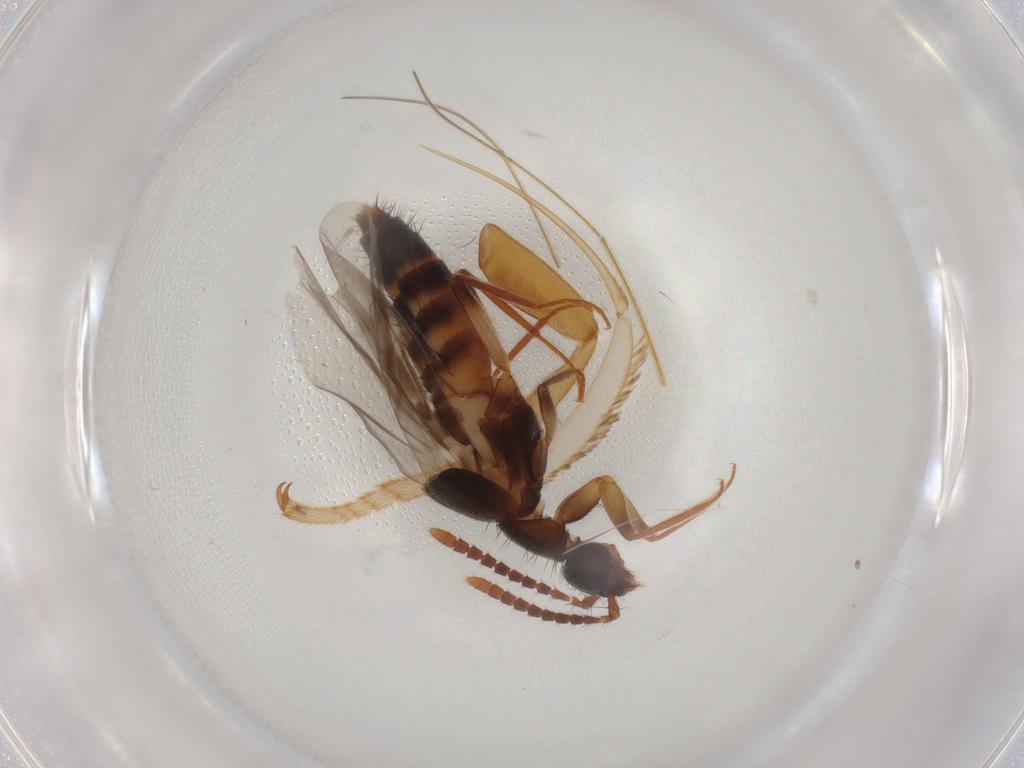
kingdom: Animalia
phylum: Arthropoda
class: Insecta
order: Coleoptera
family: Lymexylidae
